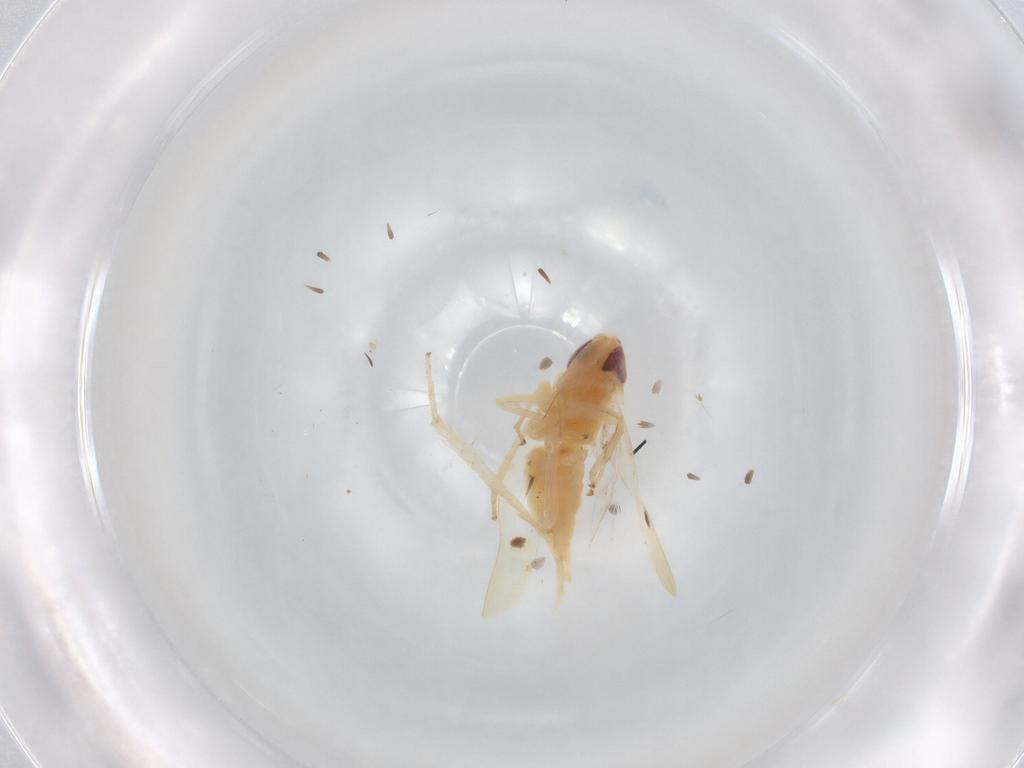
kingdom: Animalia
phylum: Arthropoda
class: Insecta
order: Hemiptera
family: Cicadellidae
